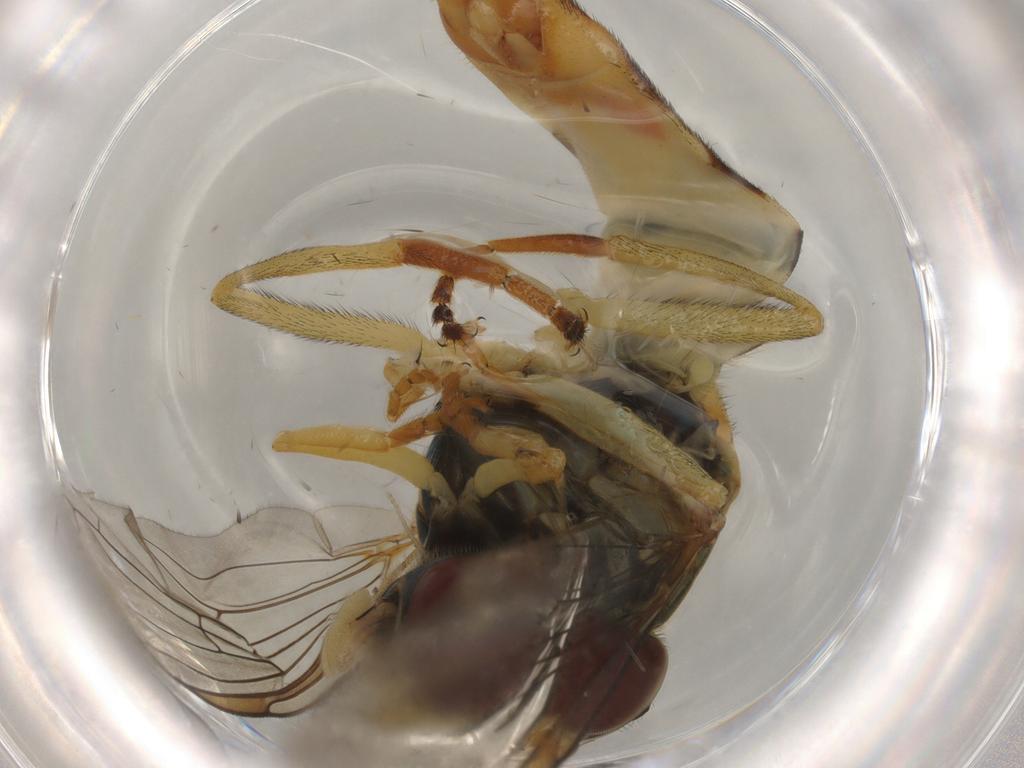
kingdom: Animalia
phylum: Arthropoda
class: Insecta
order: Diptera
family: Syrphidae
